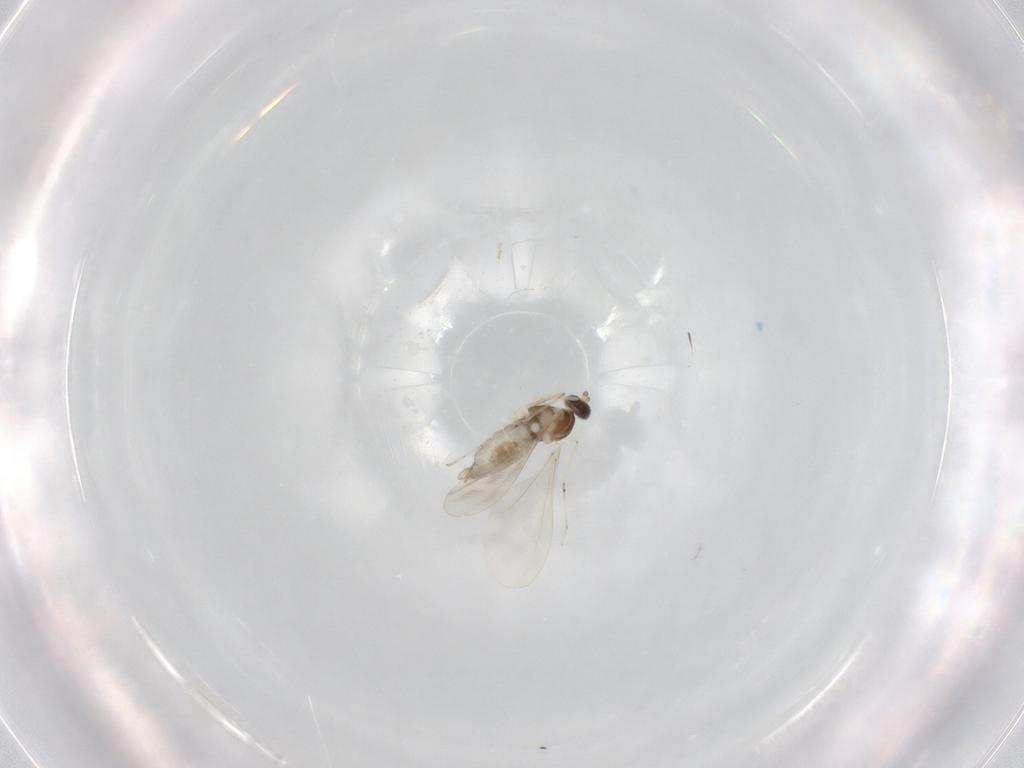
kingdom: Animalia
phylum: Arthropoda
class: Insecta
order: Diptera
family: Cecidomyiidae
